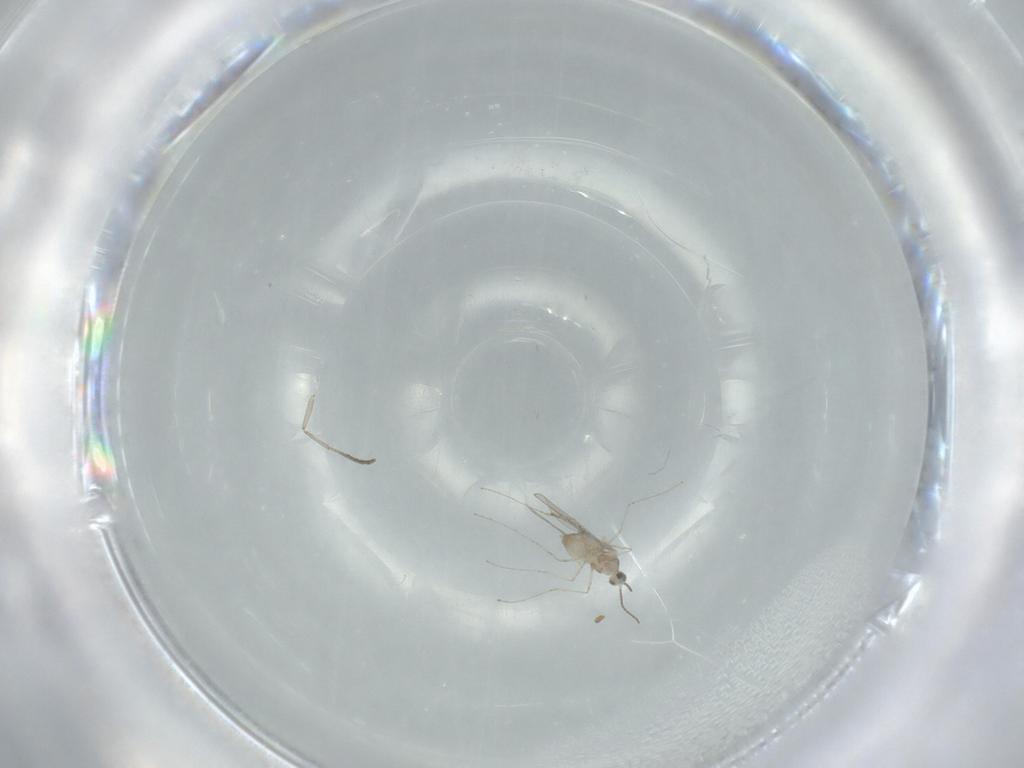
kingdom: Animalia
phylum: Arthropoda
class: Insecta
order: Diptera
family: Cecidomyiidae
